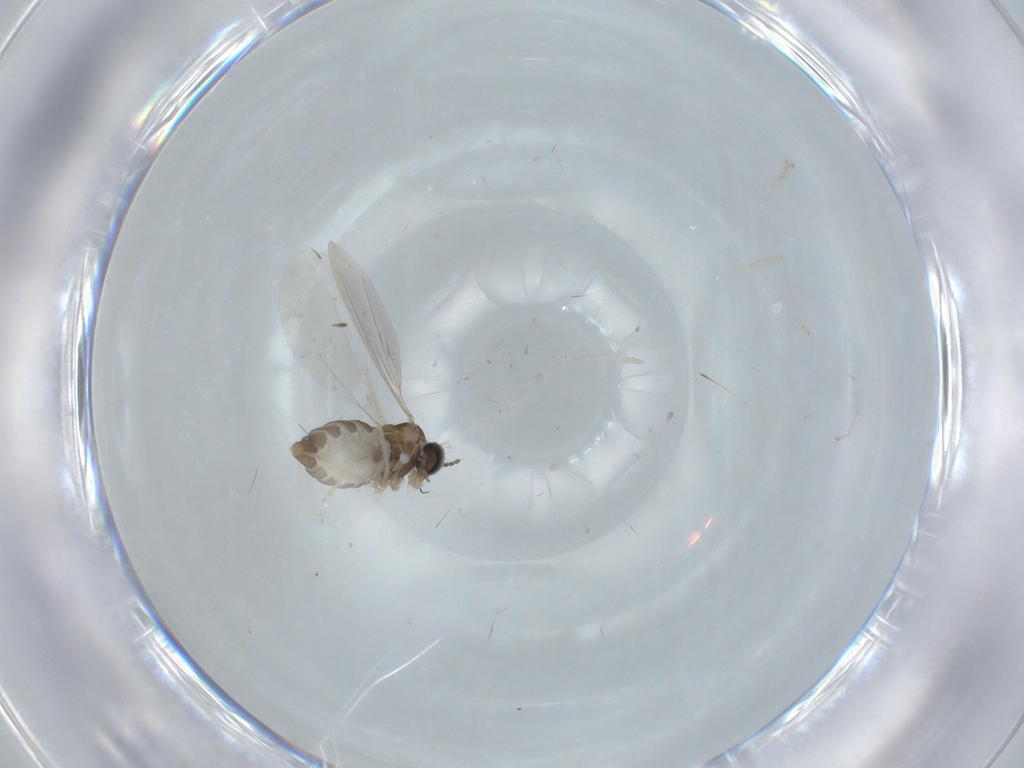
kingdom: Animalia
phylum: Arthropoda
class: Insecta
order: Diptera
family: Cecidomyiidae
